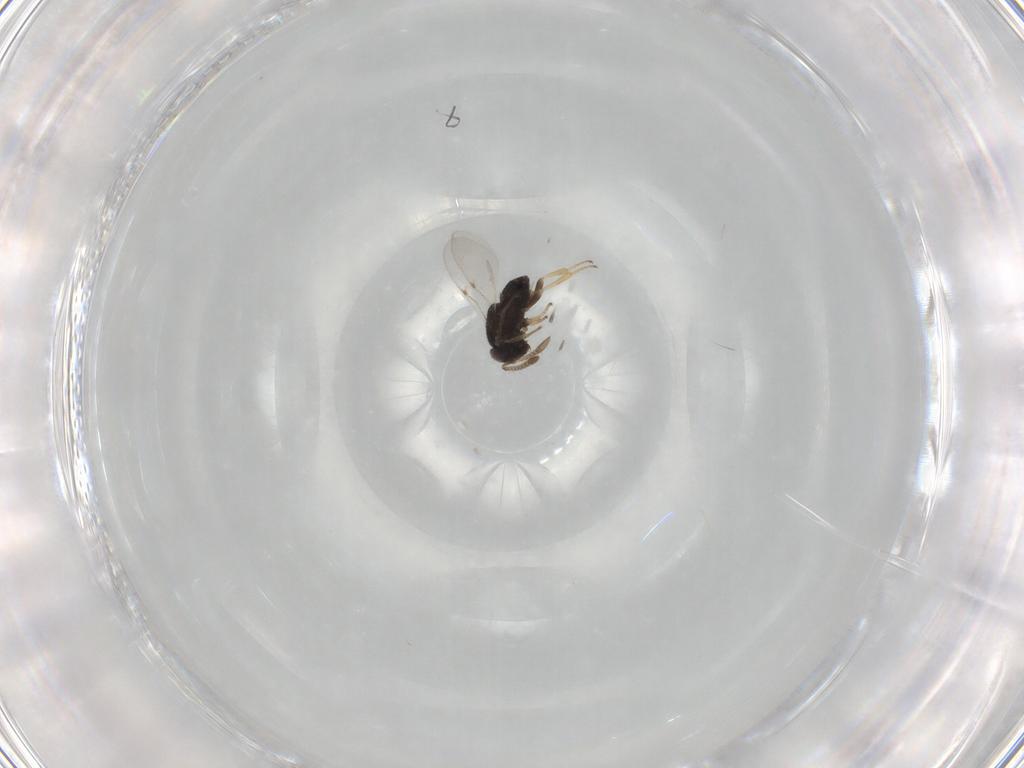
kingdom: Animalia
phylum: Arthropoda
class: Insecta
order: Hymenoptera
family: Encyrtidae
